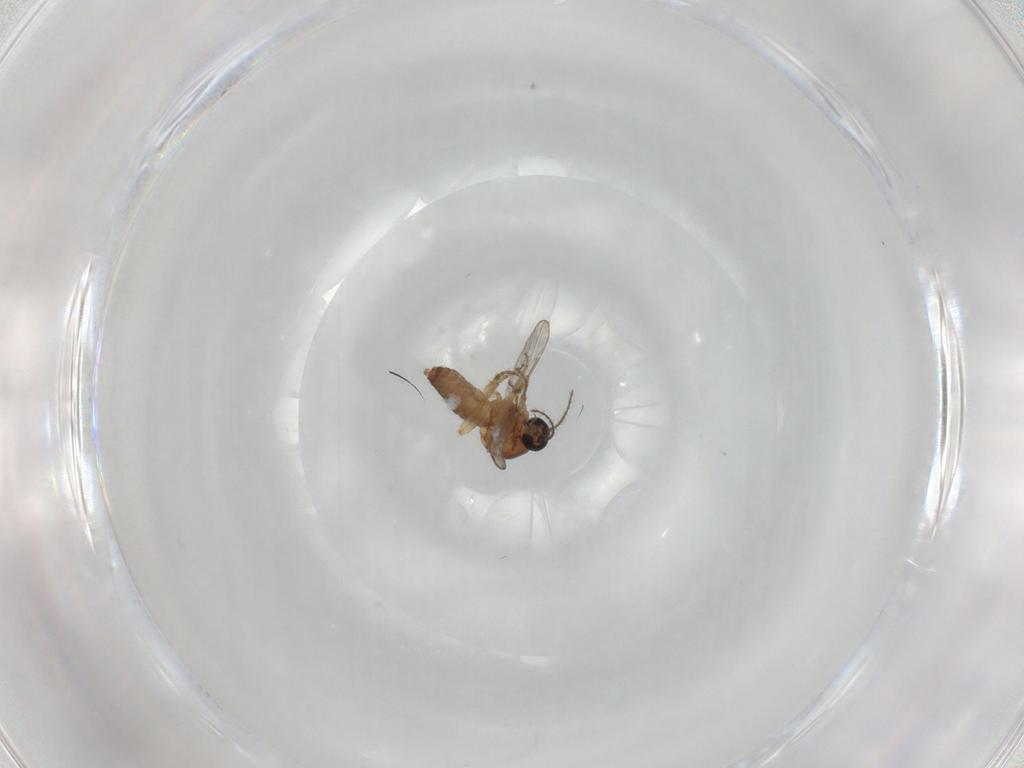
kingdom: Animalia
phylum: Arthropoda
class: Insecta
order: Diptera
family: Ceratopogonidae
